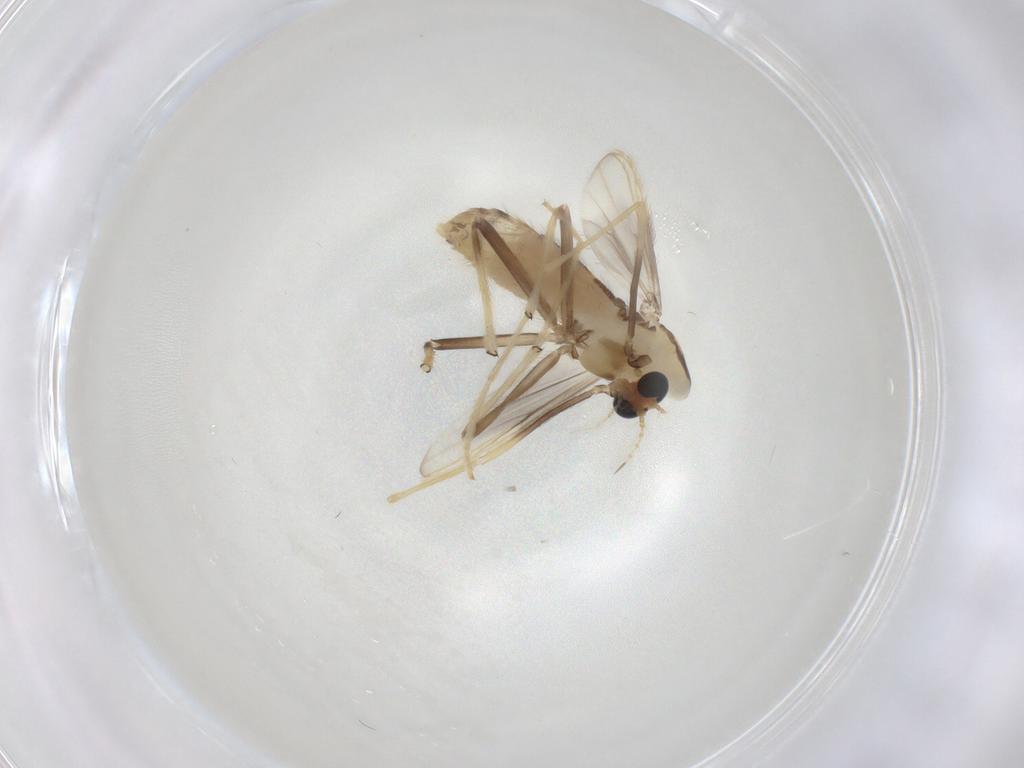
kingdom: Animalia
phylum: Arthropoda
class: Insecta
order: Diptera
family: Chironomidae
